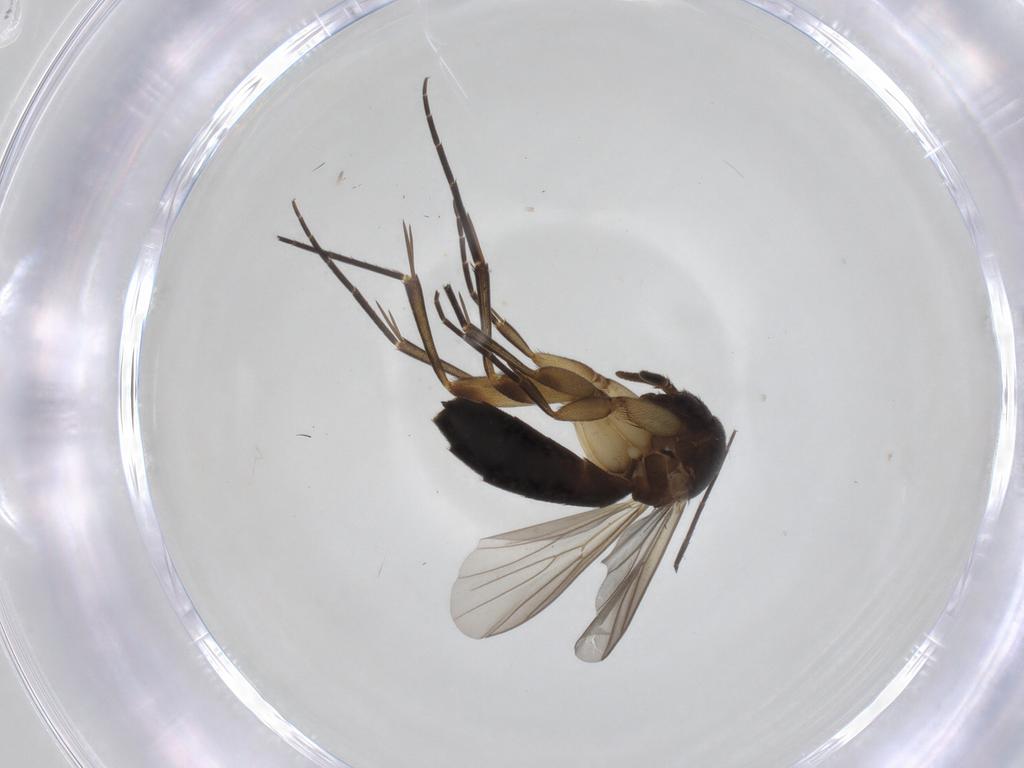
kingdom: Animalia
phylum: Arthropoda
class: Insecta
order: Diptera
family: Mycetophilidae
